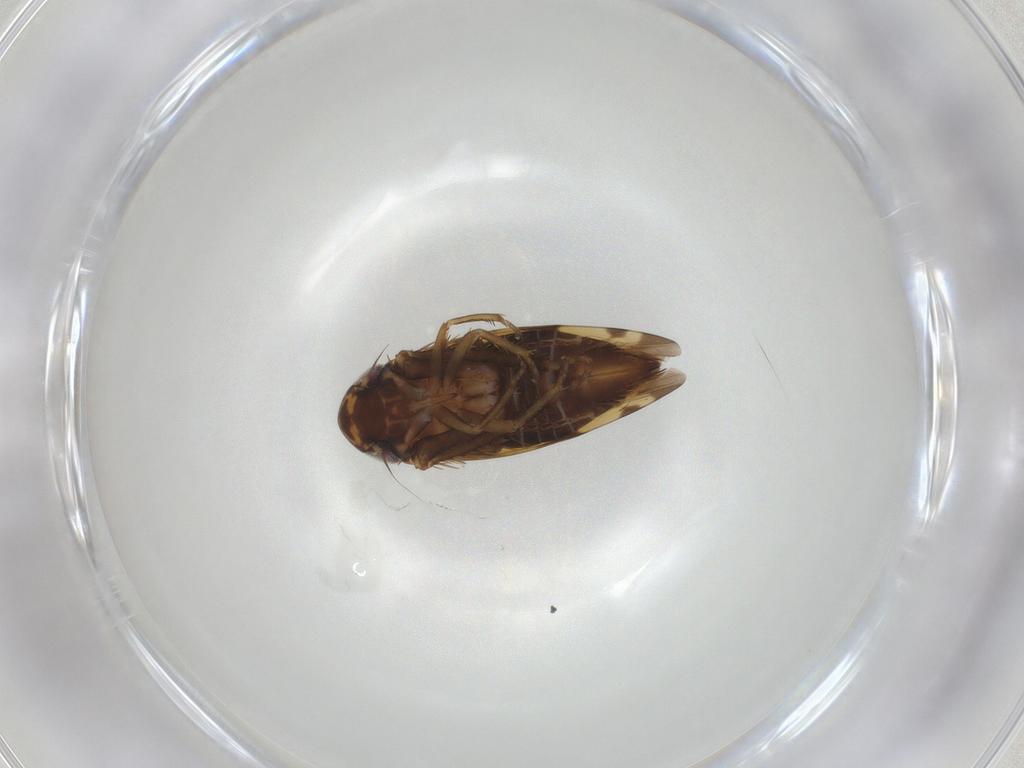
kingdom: Animalia
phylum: Arthropoda
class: Insecta
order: Hemiptera
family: Cicadellidae
